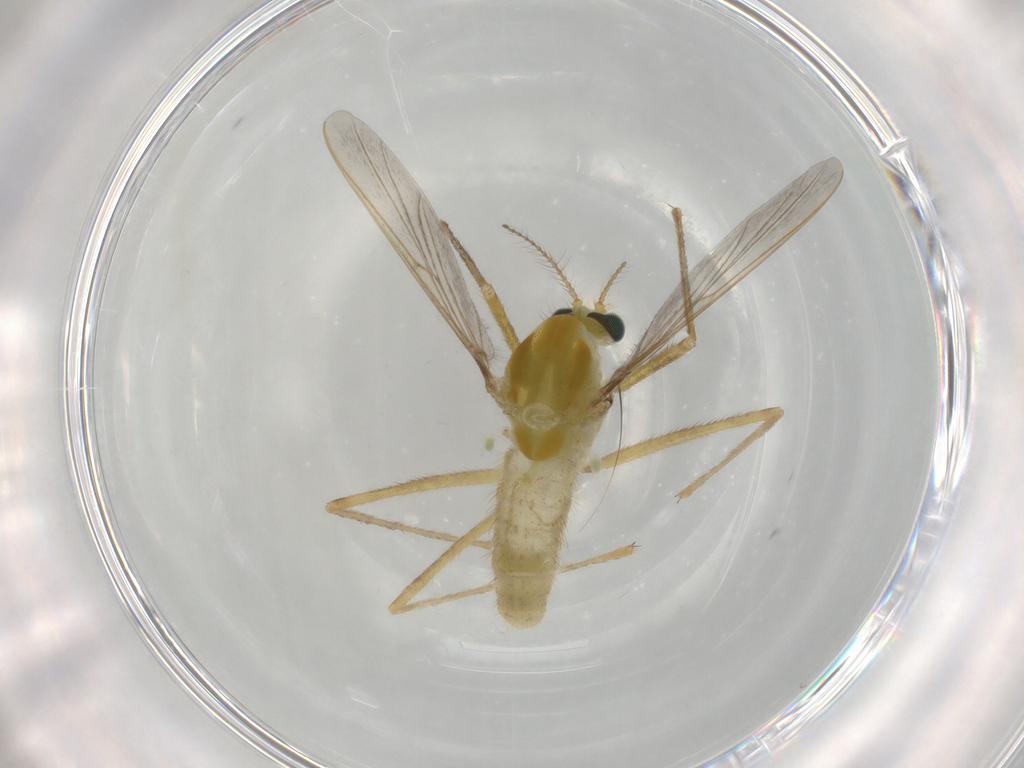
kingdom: Animalia
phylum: Arthropoda
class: Insecta
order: Diptera
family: Chironomidae
